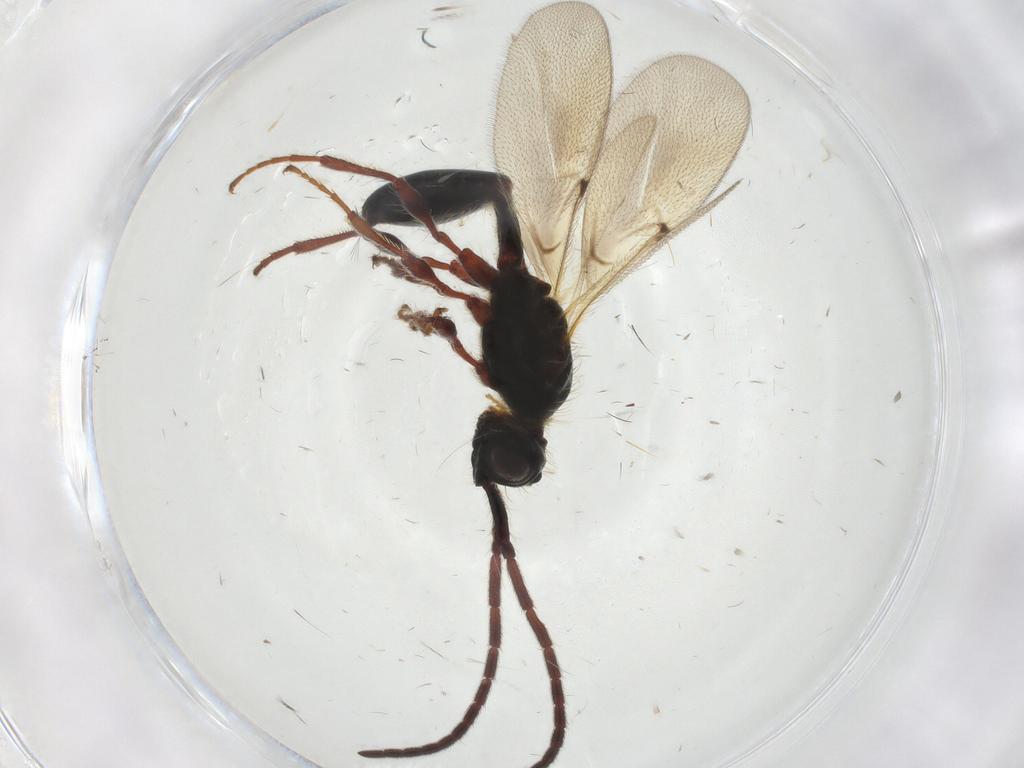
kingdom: Animalia
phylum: Arthropoda
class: Insecta
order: Hymenoptera
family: Diapriidae
